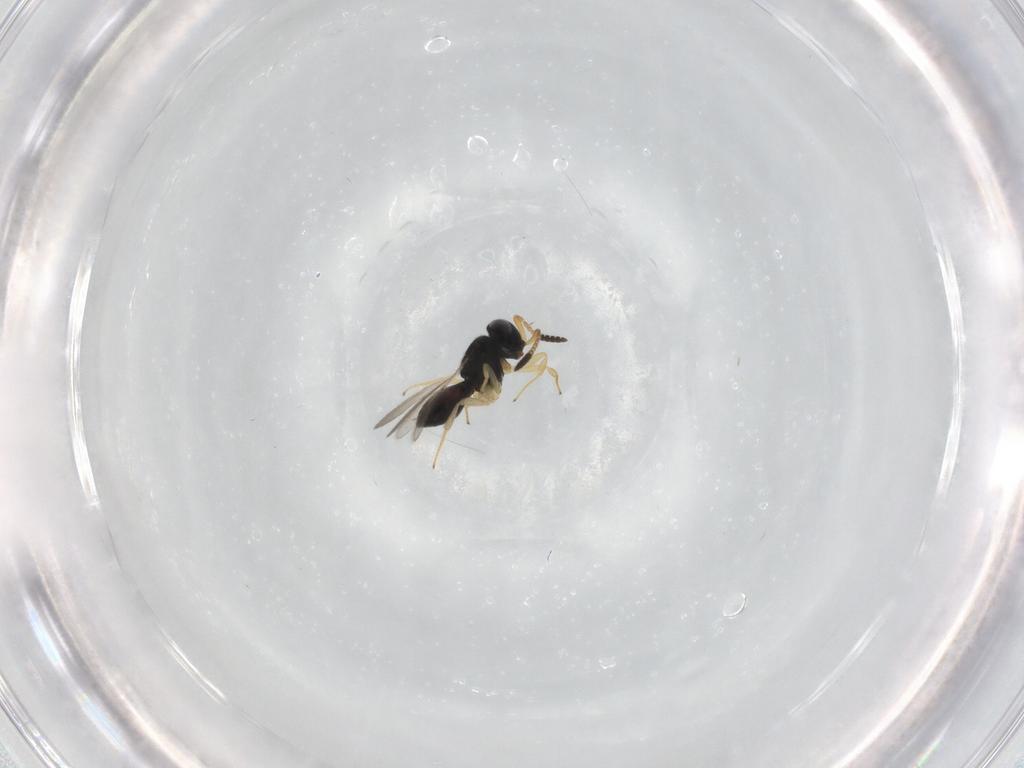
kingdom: Animalia
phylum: Arthropoda
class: Insecta
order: Hymenoptera
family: Scelionidae
